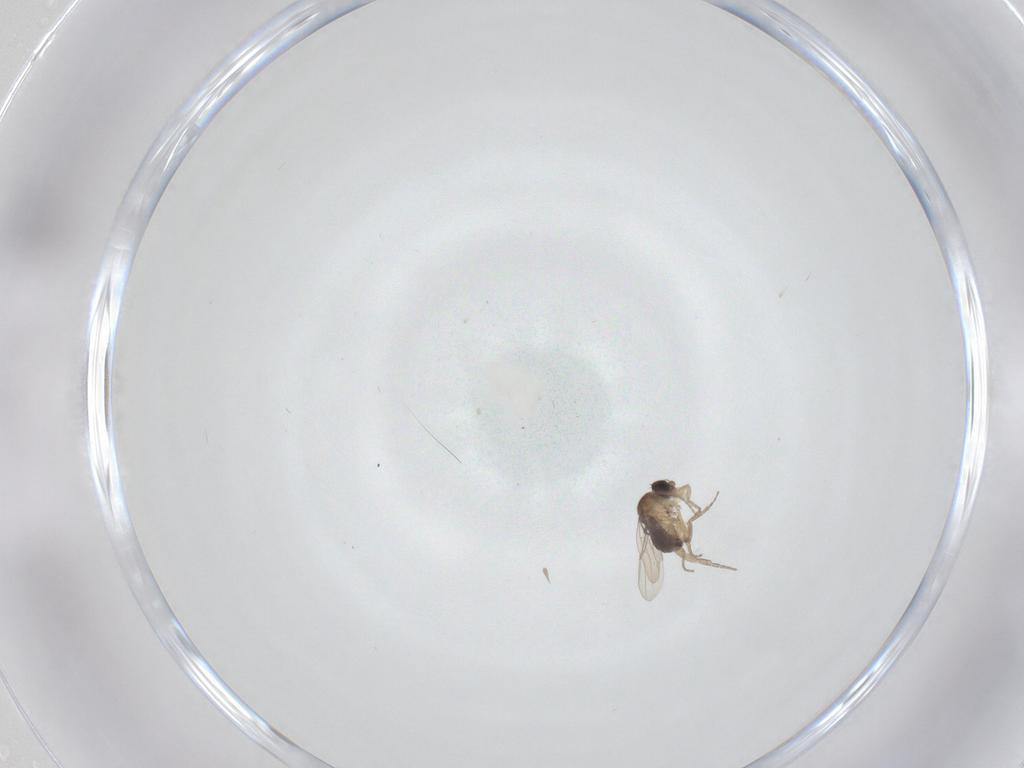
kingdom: Animalia
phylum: Arthropoda
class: Insecta
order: Diptera
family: Phoridae
